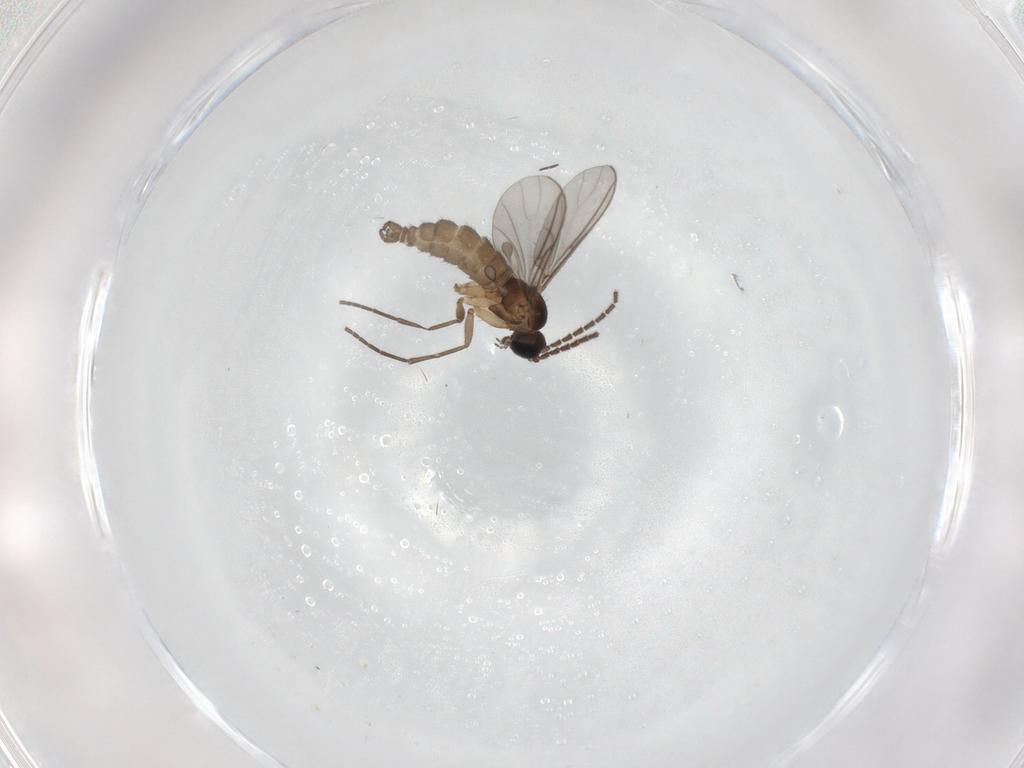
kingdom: Animalia
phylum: Arthropoda
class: Insecta
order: Diptera
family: Sciaridae
